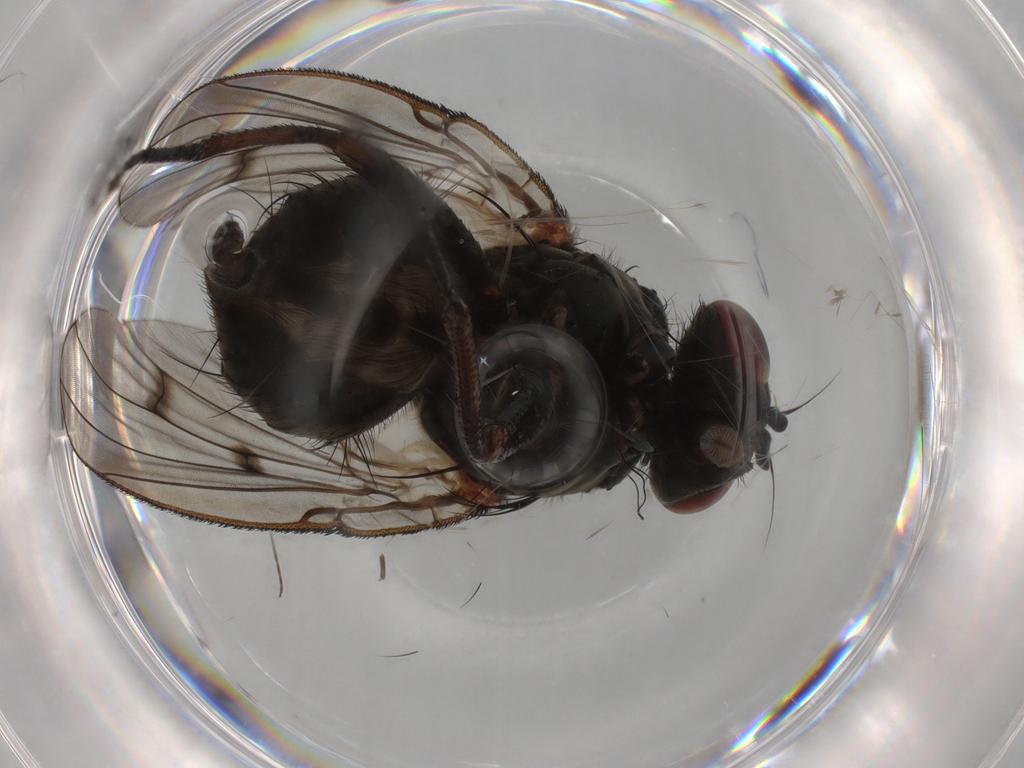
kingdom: Animalia
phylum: Arthropoda
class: Insecta
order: Diptera
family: Muscidae
